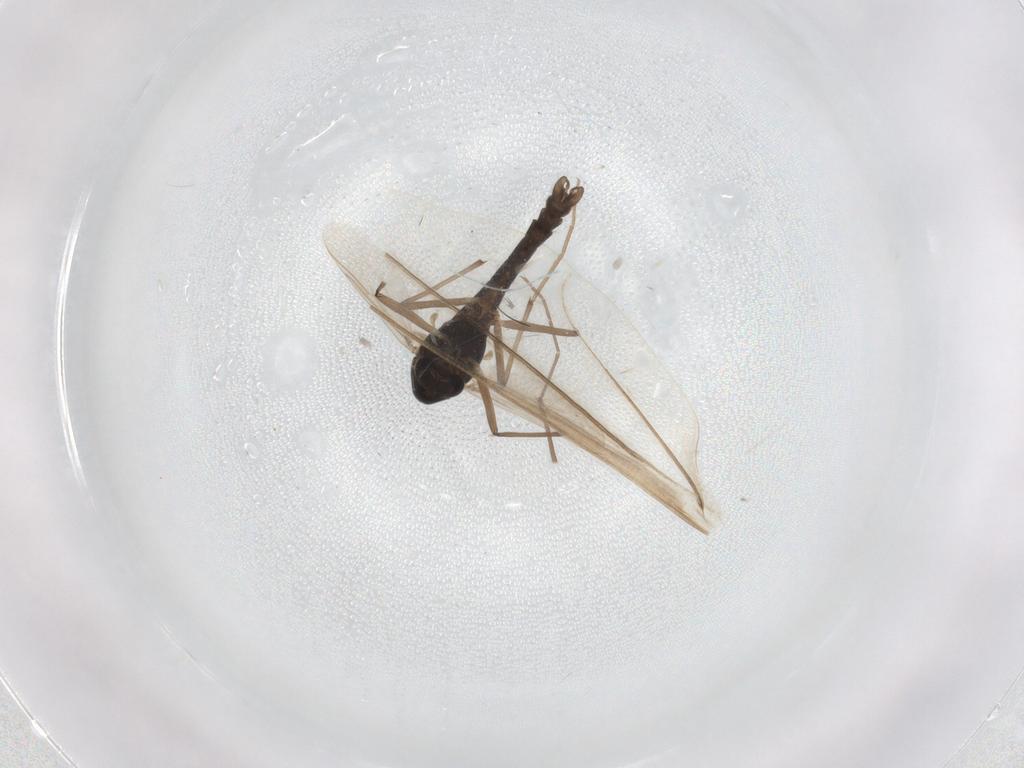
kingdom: Animalia
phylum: Arthropoda
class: Insecta
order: Diptera
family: Chironomidae
